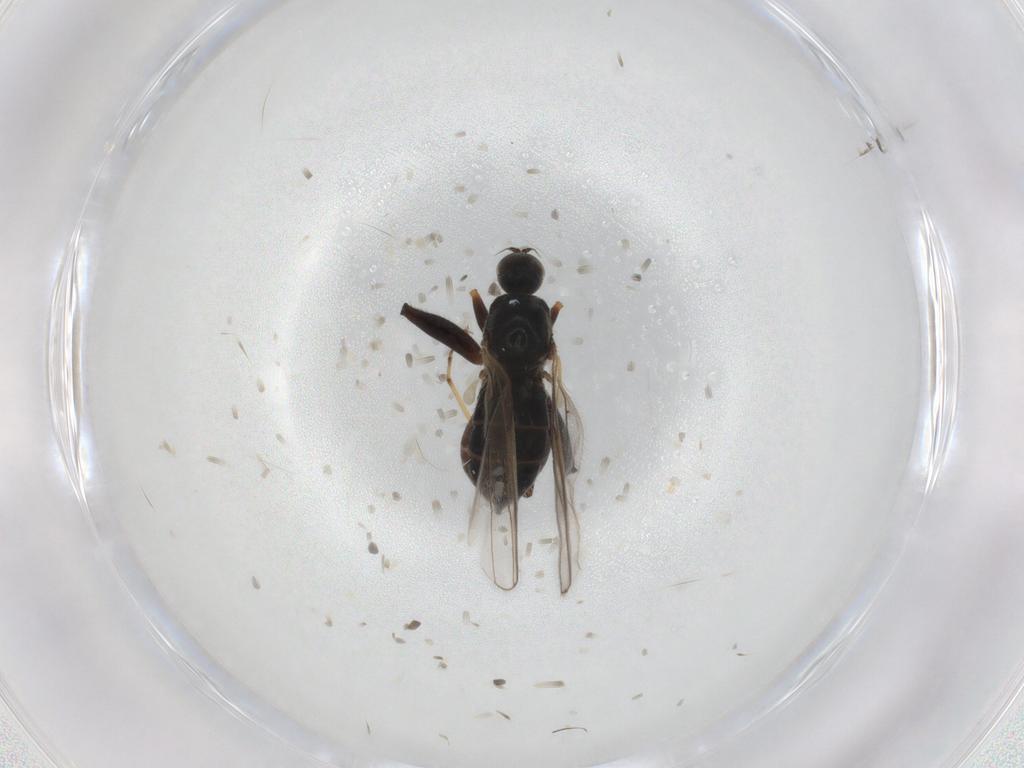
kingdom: Animalia
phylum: Arthropoda
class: Insecta
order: Diptera
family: Hybotidae
